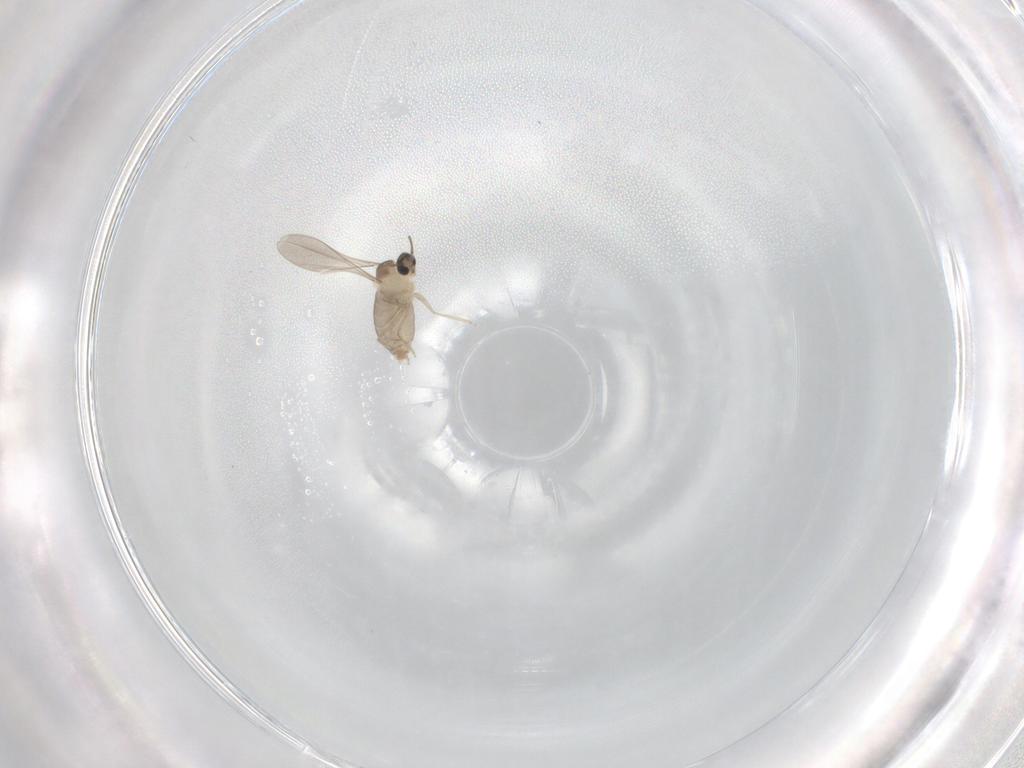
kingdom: Animalia
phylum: Arthropoda
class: Insecta
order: Diptera
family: Cecidomyiidae
